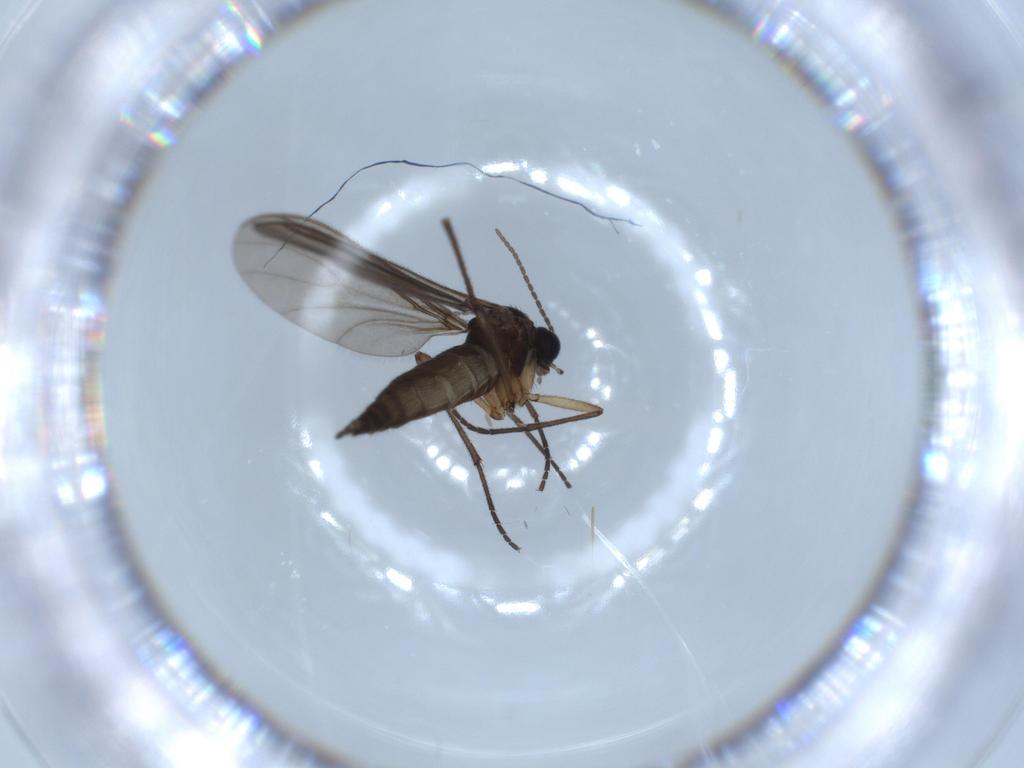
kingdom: Animalia
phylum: Arthropoda
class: Insecta
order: Diptera
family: Sciaridae
